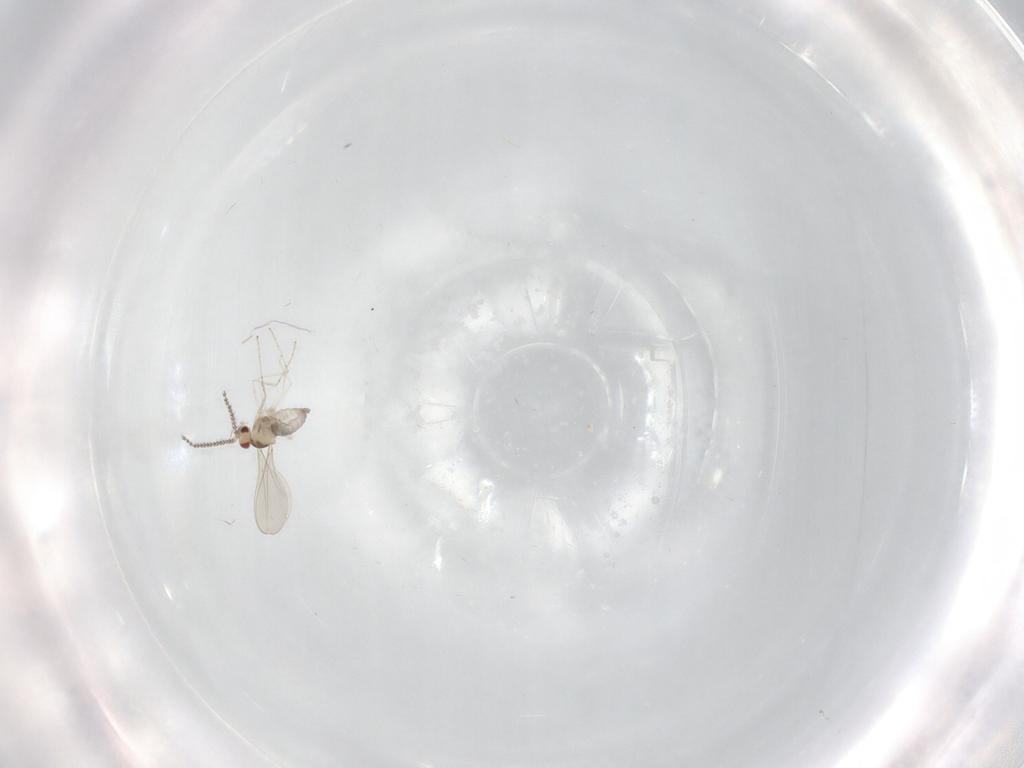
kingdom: Animalia
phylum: Arthropoda
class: Insecta
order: Diptera
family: Cecidomyiidae
